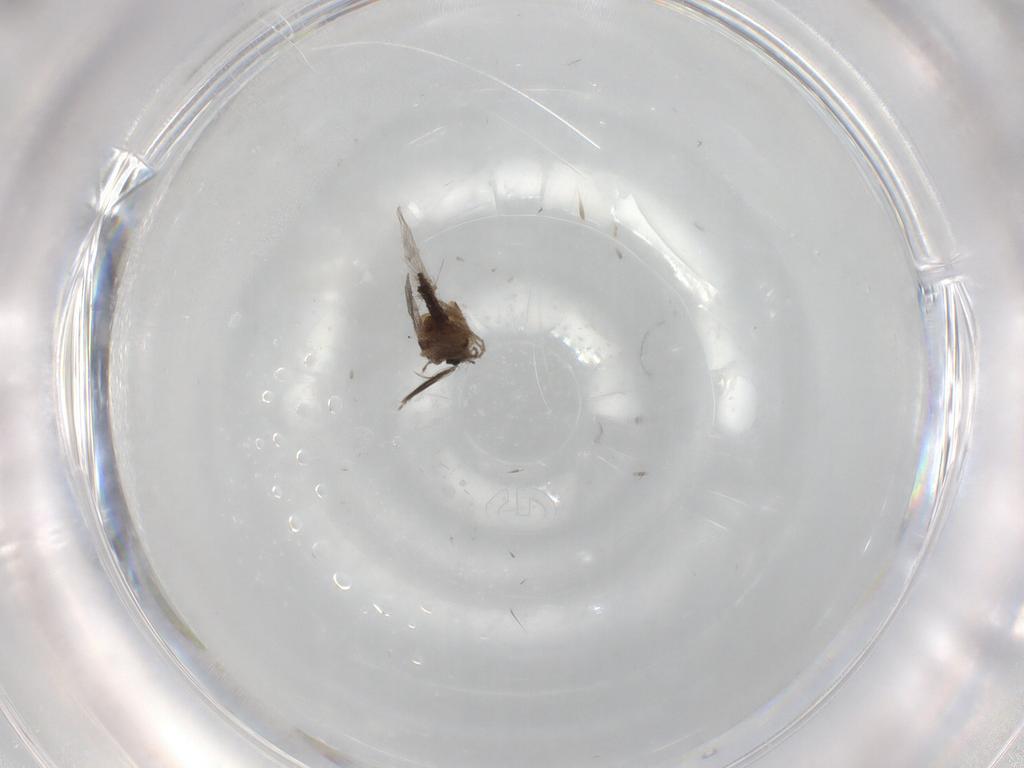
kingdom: Animalia
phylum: Arthropoda
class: Insecta
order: Diptera
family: Ceratopogonidae
